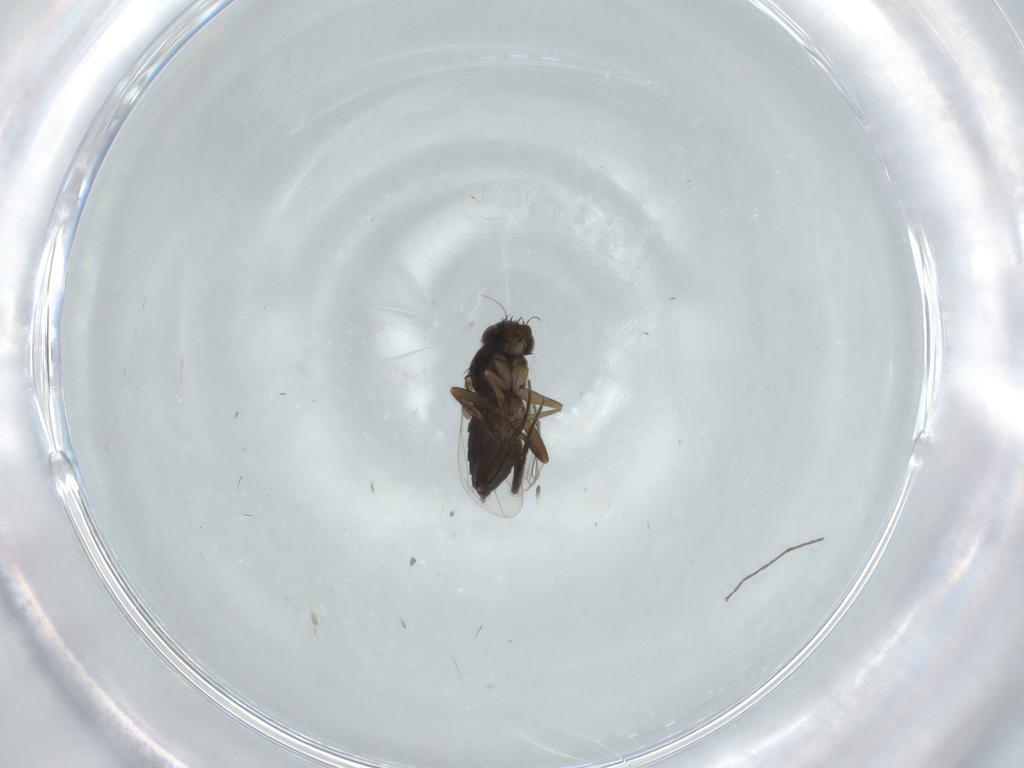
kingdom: Animalia
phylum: Arthropoda
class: Insecta
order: Diptera
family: Phoridae
